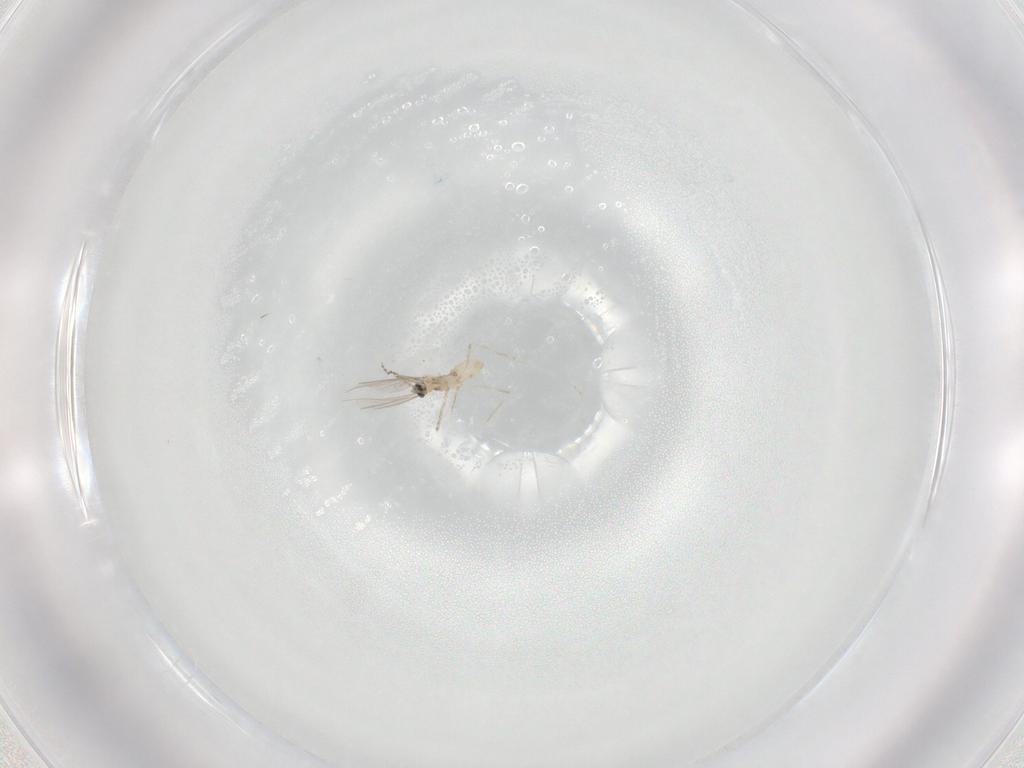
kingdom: Animalia
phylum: Arthropoda
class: Insecta
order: Diptera
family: Cecidomyiidae
